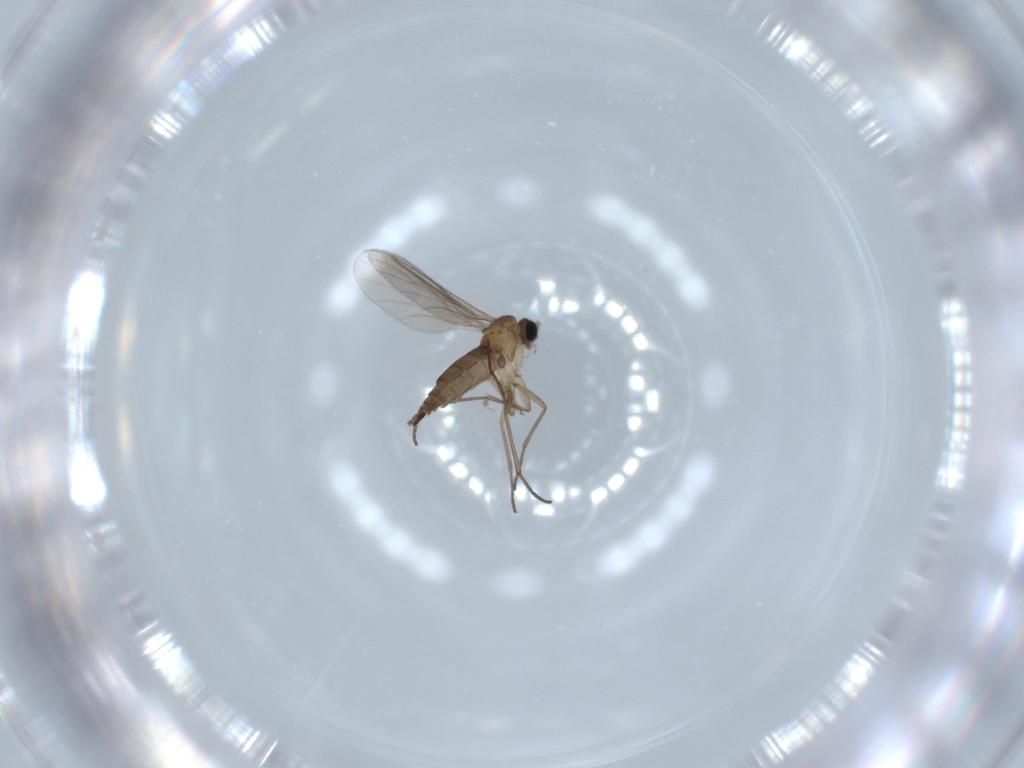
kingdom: Animalia
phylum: Arthropoda
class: Insecta
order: Diptera
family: Sciaridae
